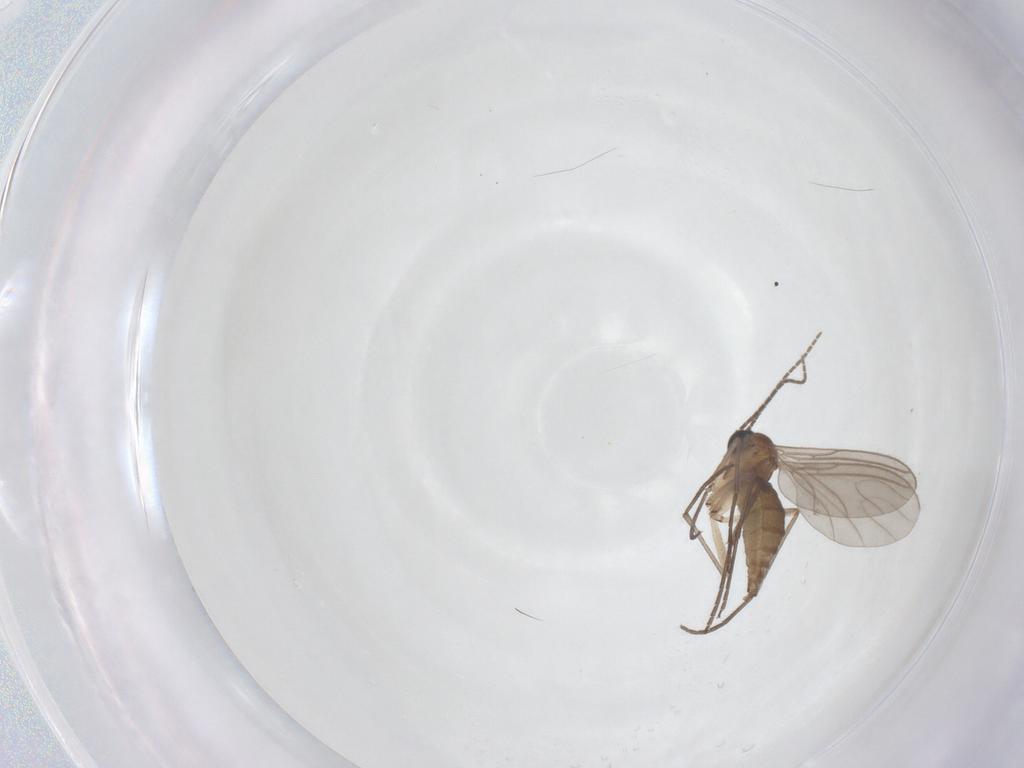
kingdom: Animalia
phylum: Arthropoda
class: Insecta
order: Diptera
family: Sciaridae
